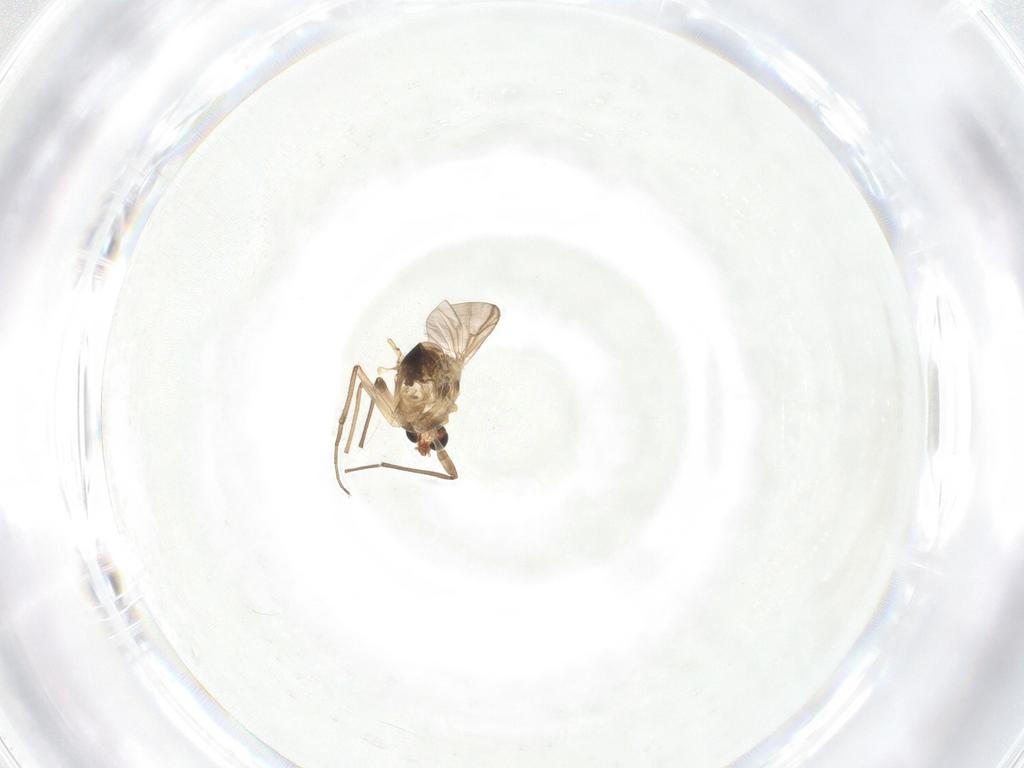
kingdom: Animalia
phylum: Arthropoda
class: Insecta
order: Diptera
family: Chironomidae
